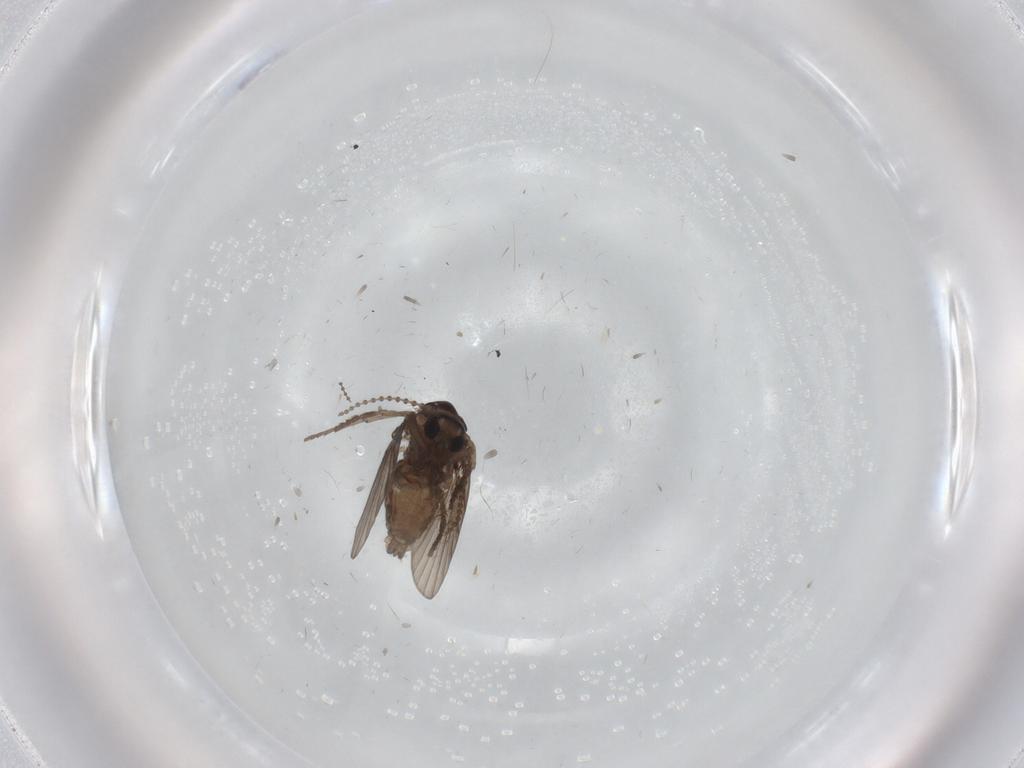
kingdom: Animalia
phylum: Arthropoda
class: Insecta
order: Diptera
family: Psychodidae
